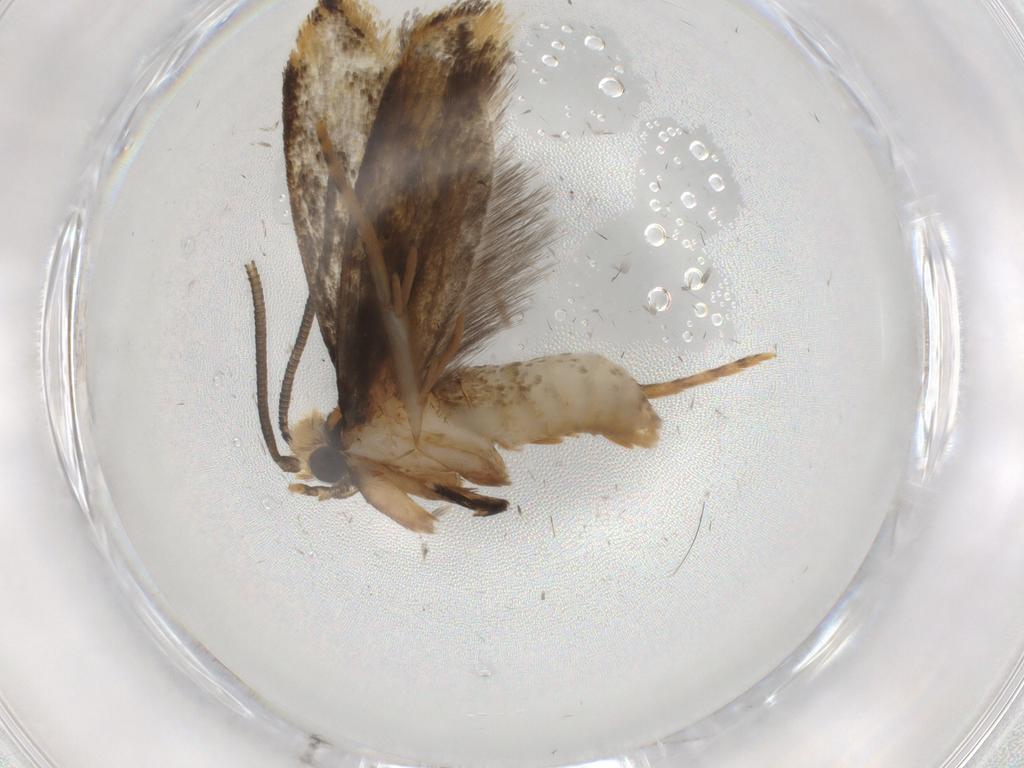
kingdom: Animalia
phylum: Arthropoda
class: Insecta
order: Lepidoptera
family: Tineidae
